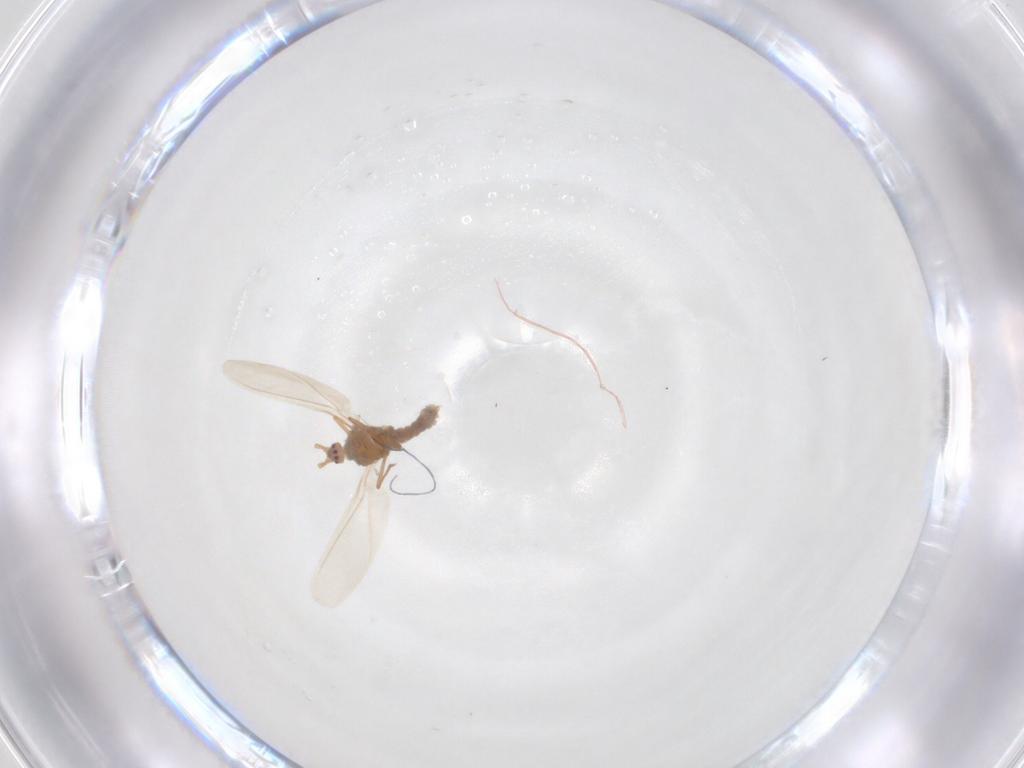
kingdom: Animalia
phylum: Arthropoda
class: Insecta
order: Hemiptera
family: Pseudococcidae
